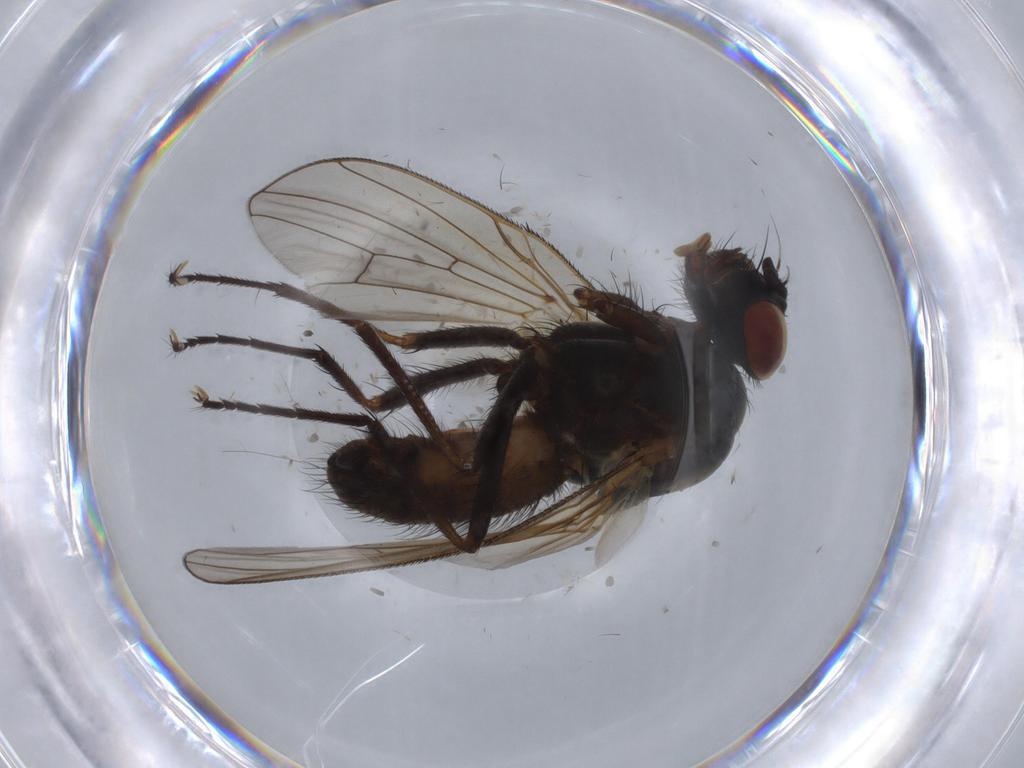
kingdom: Animalia
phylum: Arthropoda
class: Insecta
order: Diptera
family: Anthomyiidae
